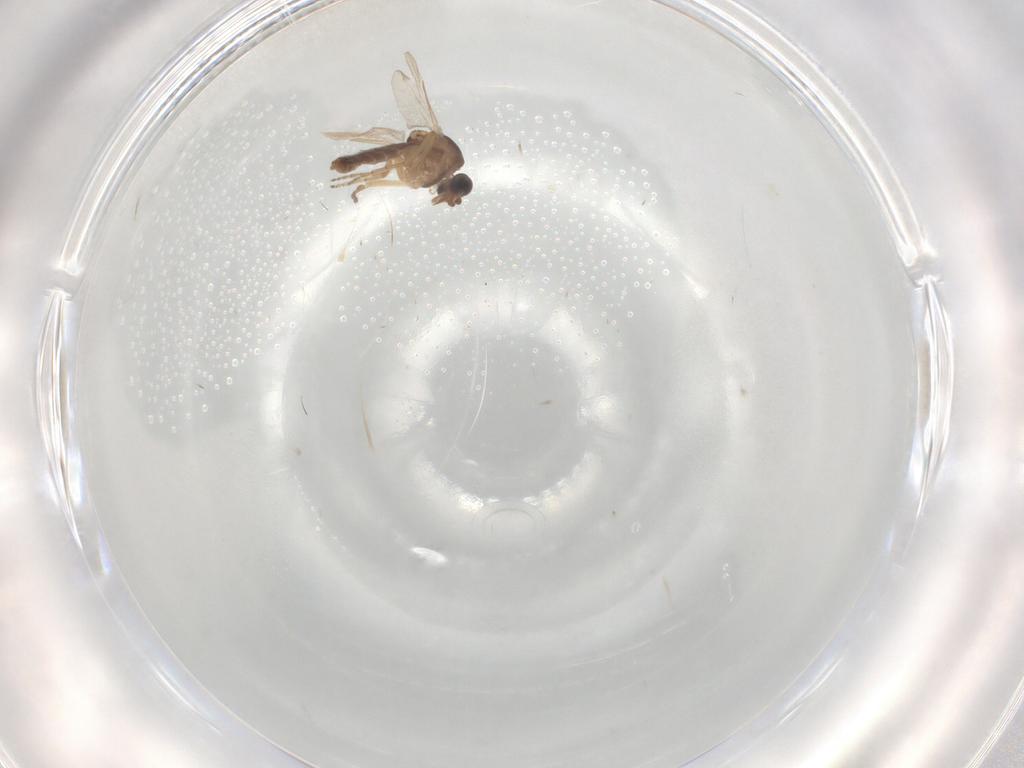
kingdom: Animalia
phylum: Arthropoda
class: Insecta
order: Diptera
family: Ceratopogonidae
